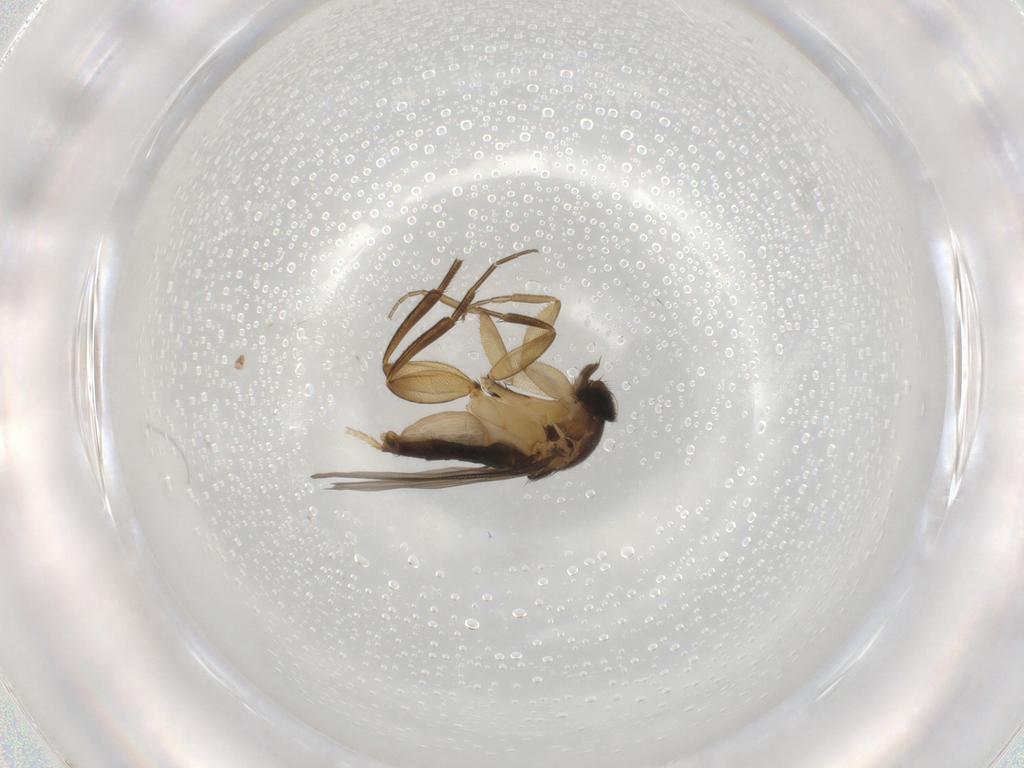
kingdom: Animalia
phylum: Arthropoda
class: Insecta
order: Diptera
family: Phoridae
